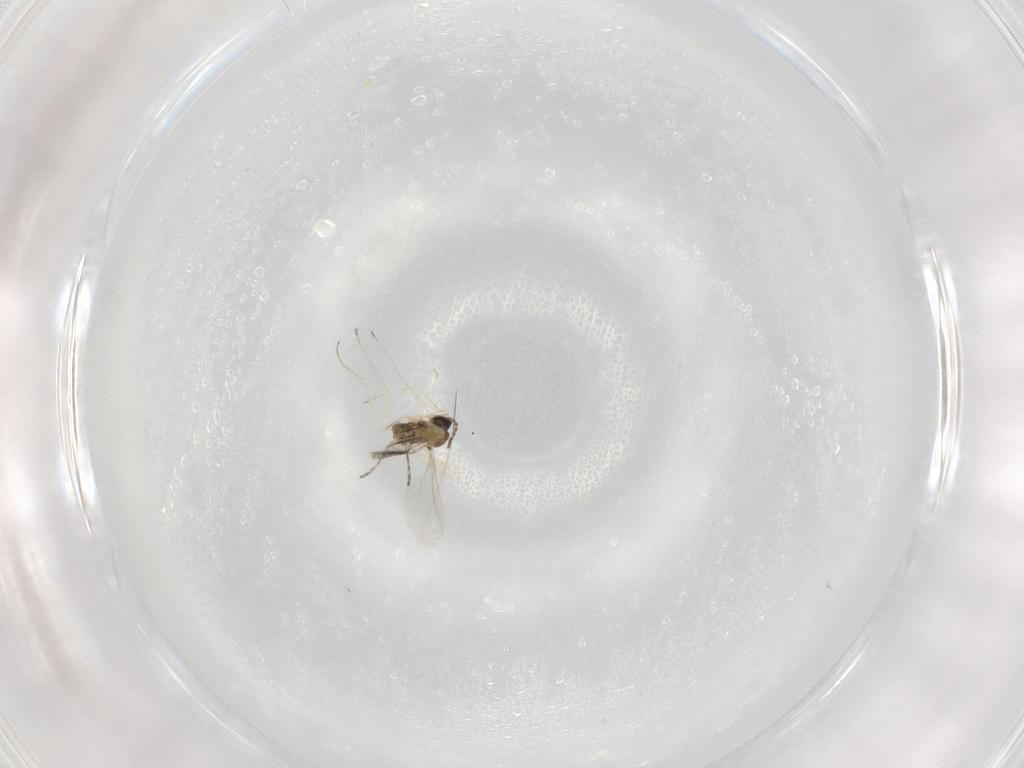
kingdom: Animalia
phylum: Arthropoda
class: Insecta
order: Diptera
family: Cecidomyiidae
